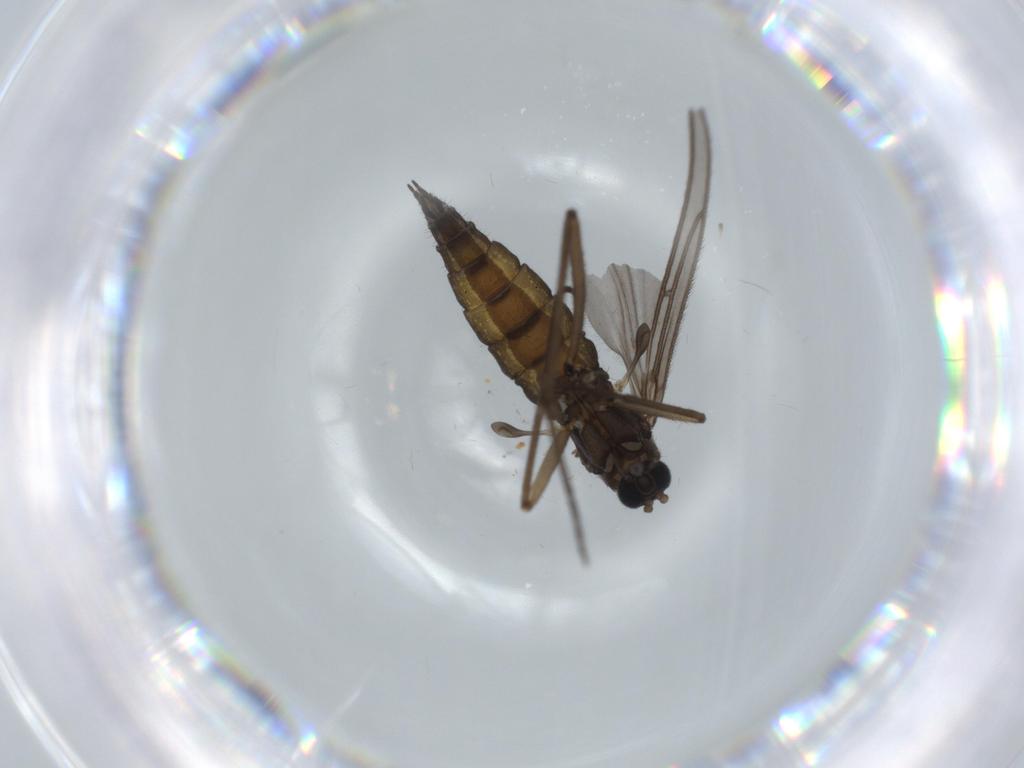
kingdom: Animalia
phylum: Arthropoda
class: Insecta
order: Diptera
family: Sciaridae
